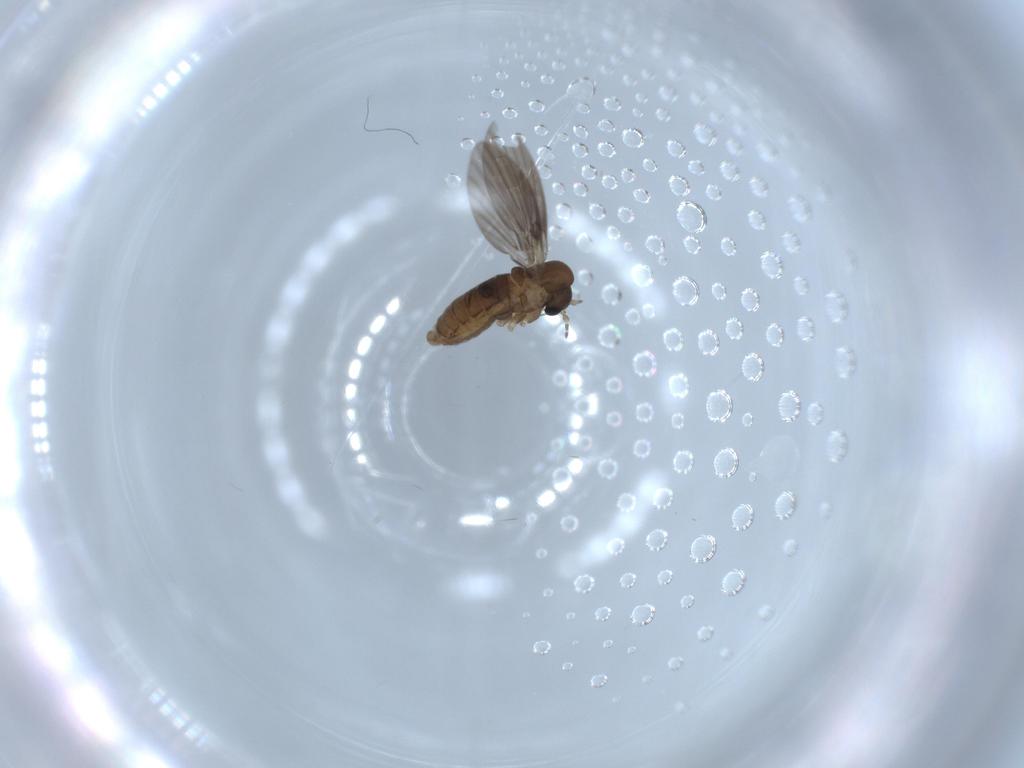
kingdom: Animalia
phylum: Arthropoda
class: Insecta
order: Diptera
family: Psychodidae
